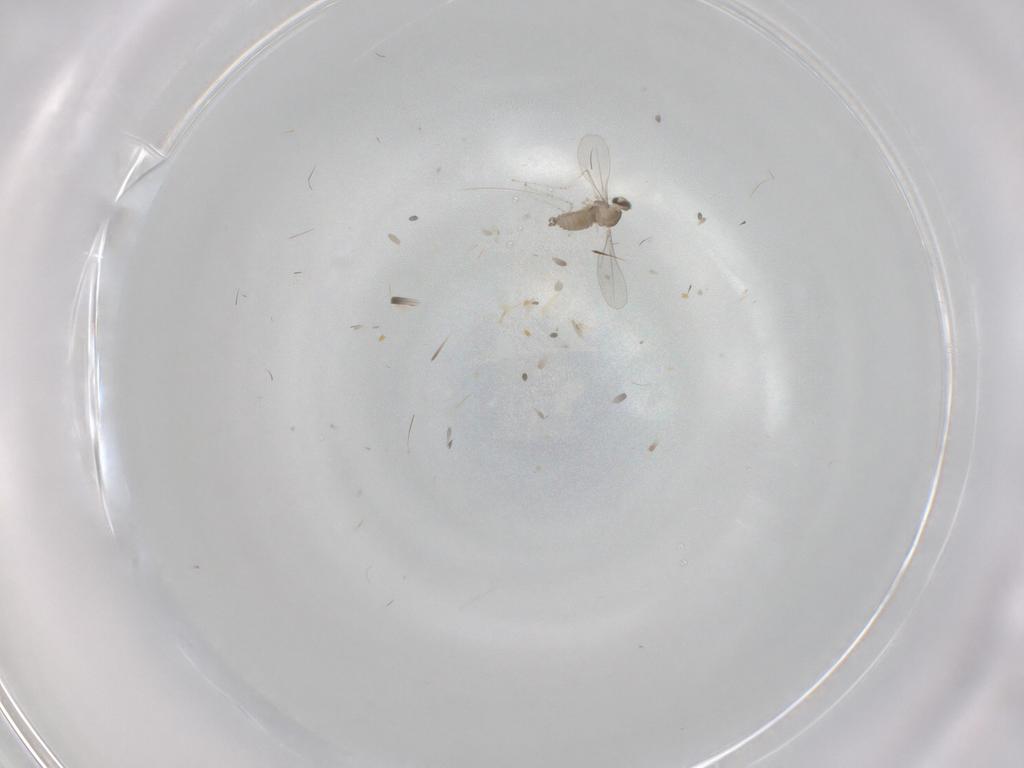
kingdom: Animalia
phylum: Arthropoda
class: Insecta
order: Diptera
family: Cecidomyiidae
